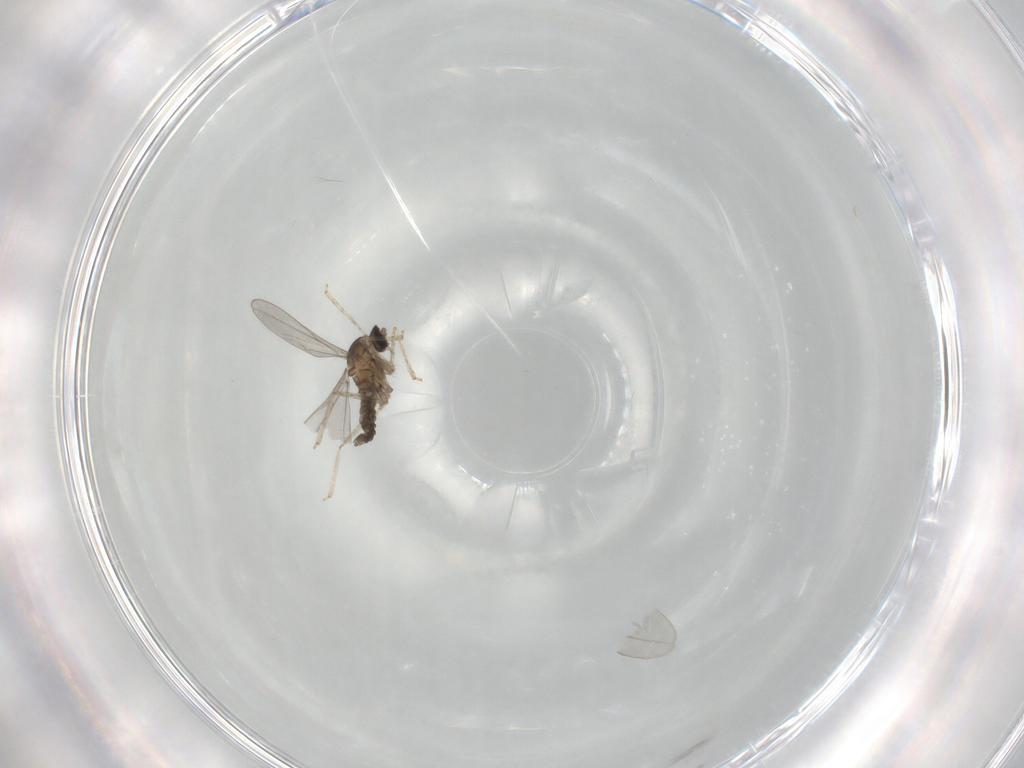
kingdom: Animalia
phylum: Arthropoda
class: Insecta
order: Diptera
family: Cecidomyiidae
